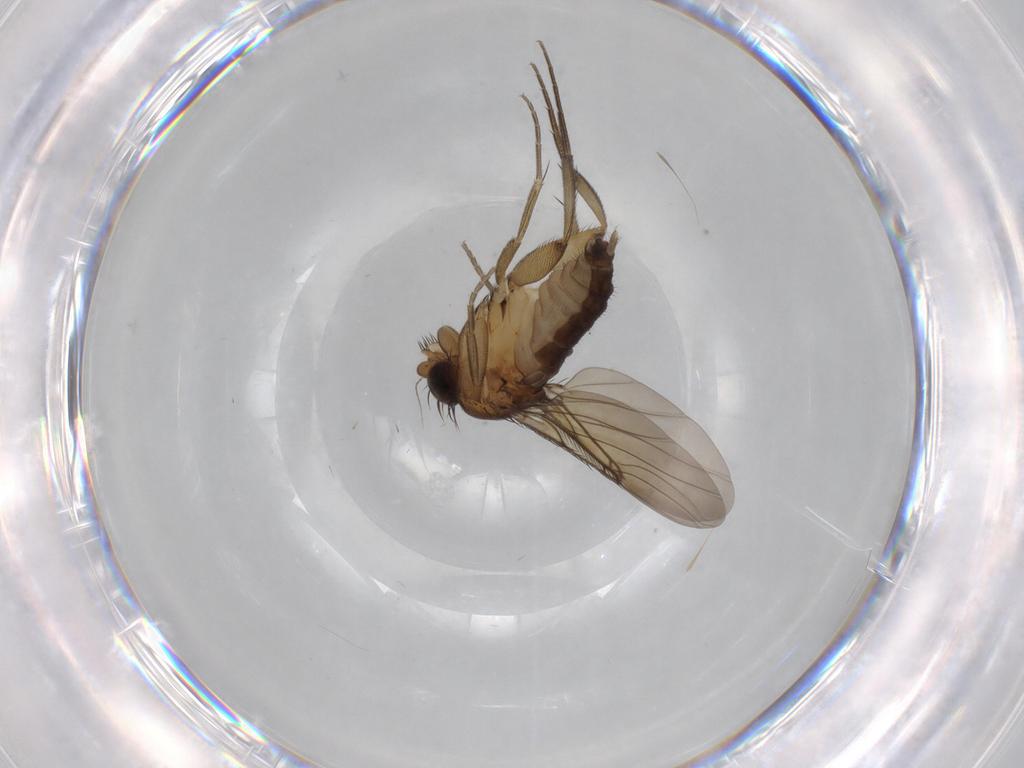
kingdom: Animalia
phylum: Arthropoda
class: Insecta
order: Diptera
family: Phoridae
